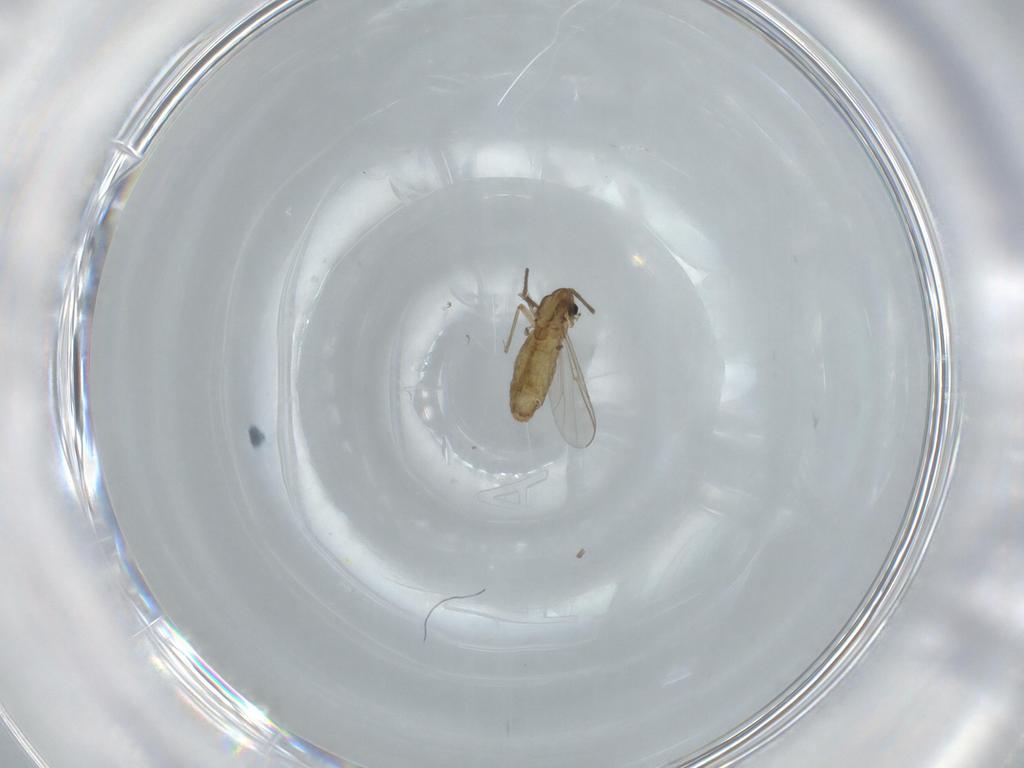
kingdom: Animalia
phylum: Arthropoda
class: Insecta
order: Diptera
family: Chironomidae
